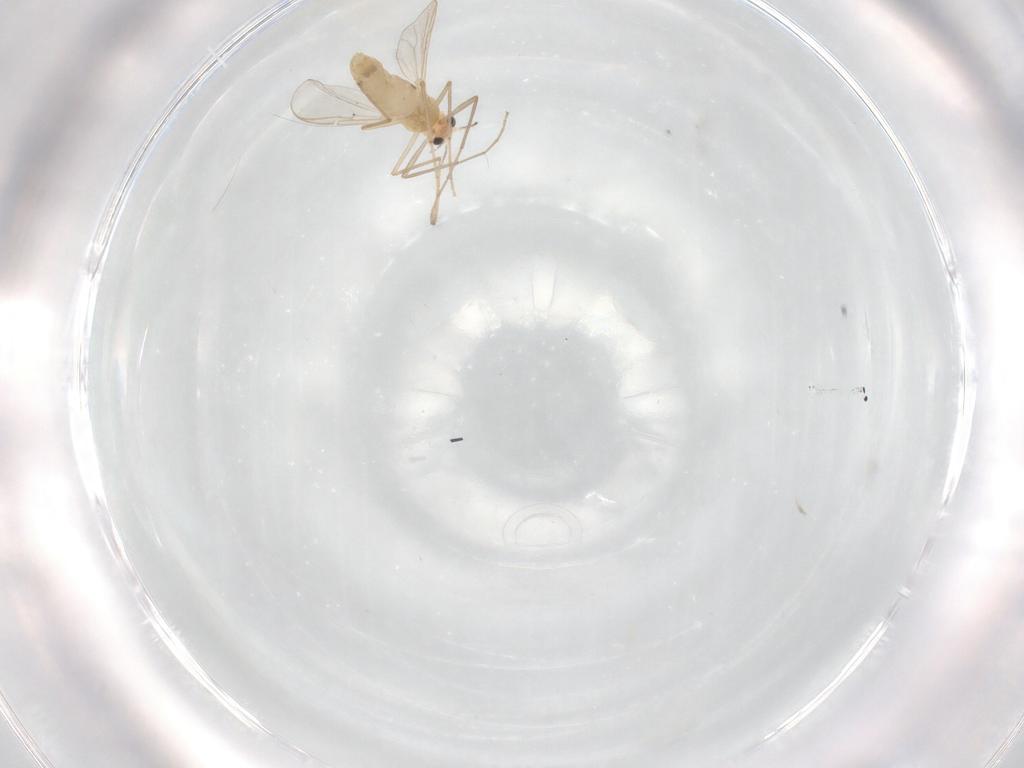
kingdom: Animalia
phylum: Arthropoda
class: Insecta
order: Diptera
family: Chironomidae
